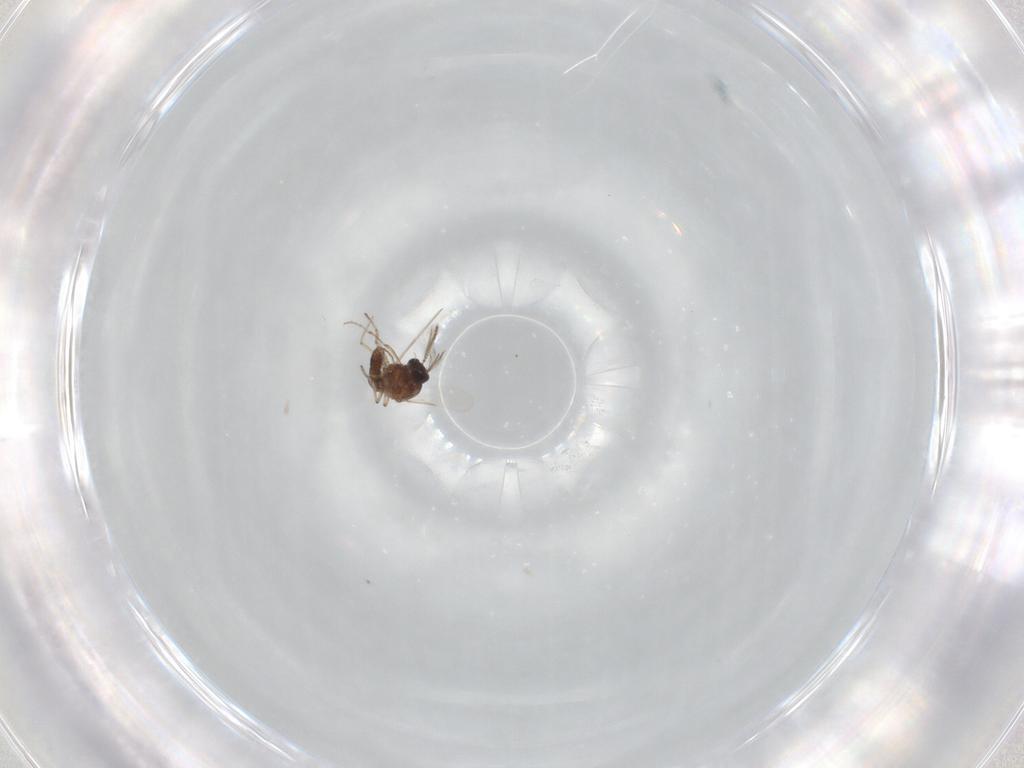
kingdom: Animalia
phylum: Arthropoda
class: Insecta
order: Diptera
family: Ceratopogonidae
